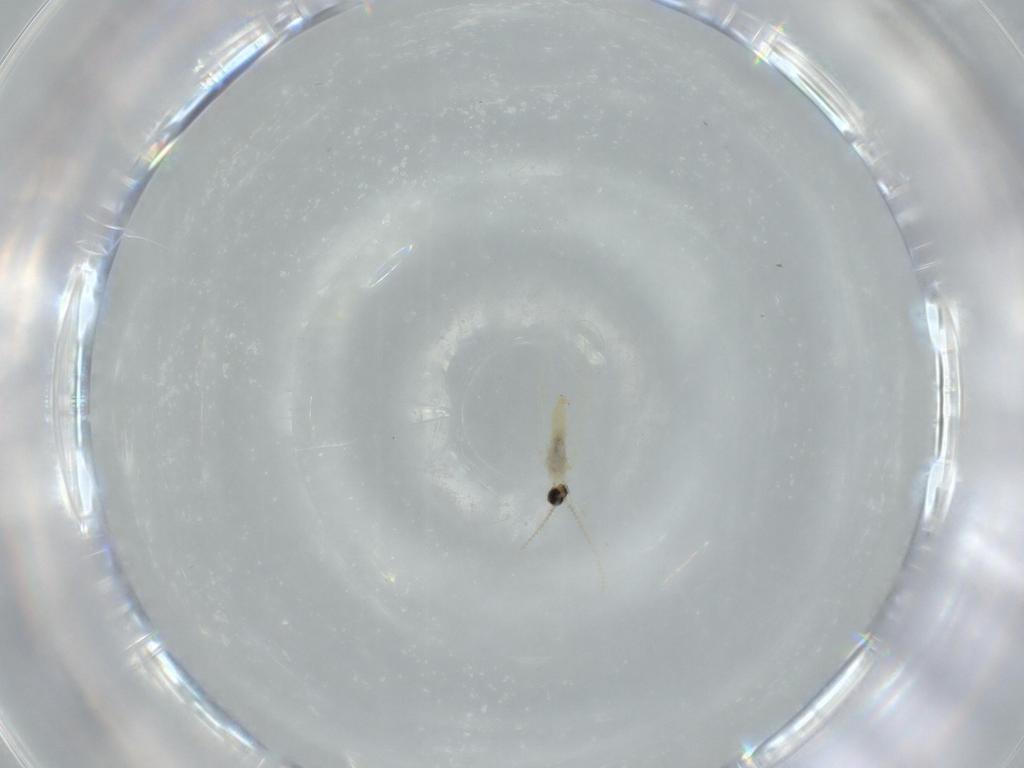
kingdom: Animalia
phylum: Arthropoda
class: Insecta
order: Diptera
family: Cecidomyiidae
